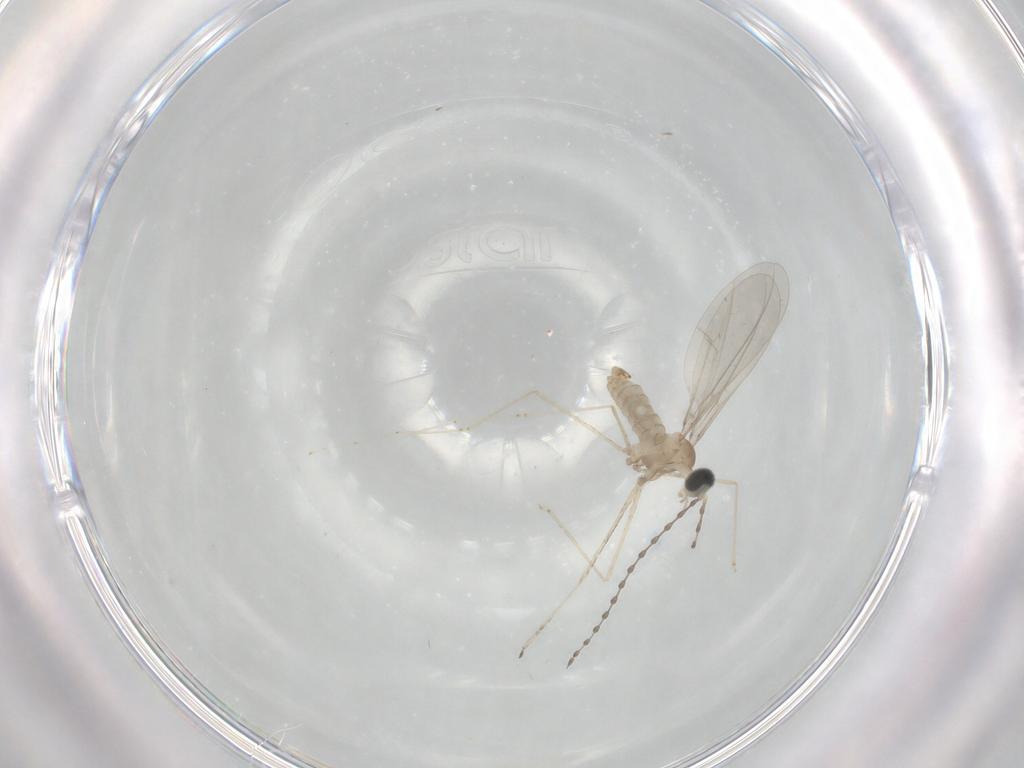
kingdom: Animalia
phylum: Arthropoda
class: Insecta
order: Diptera
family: Cecidomyiidae
